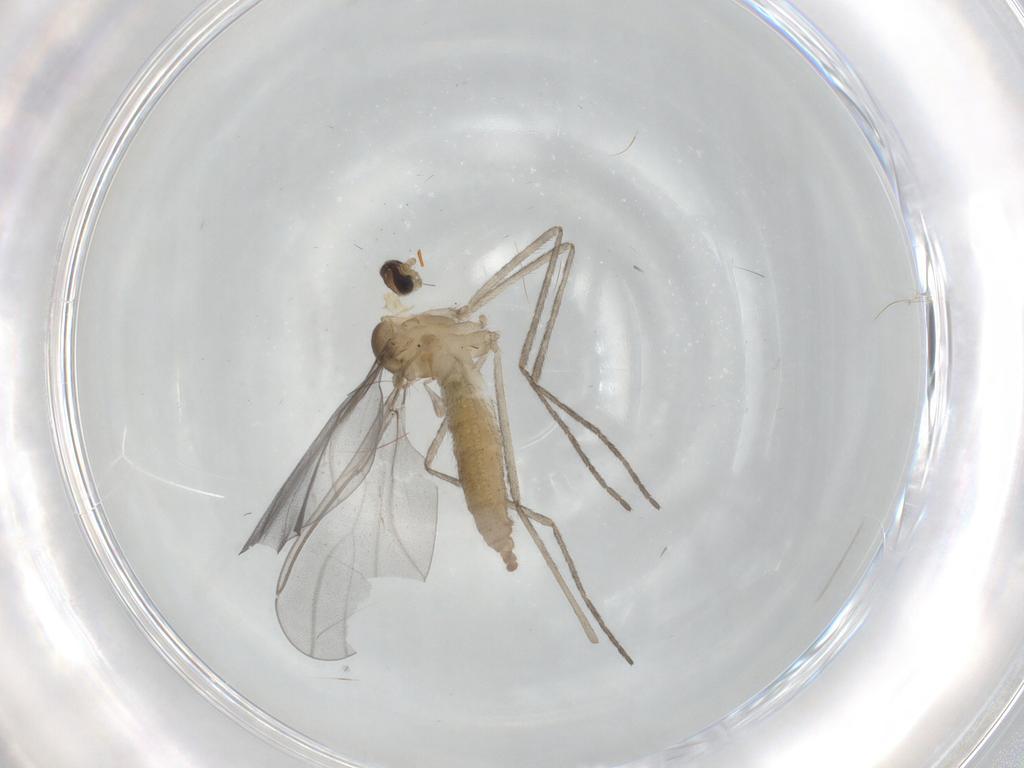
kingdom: Animalia
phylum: Arthropoda
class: Insecta
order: Diptera
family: Cecidomyiidae
